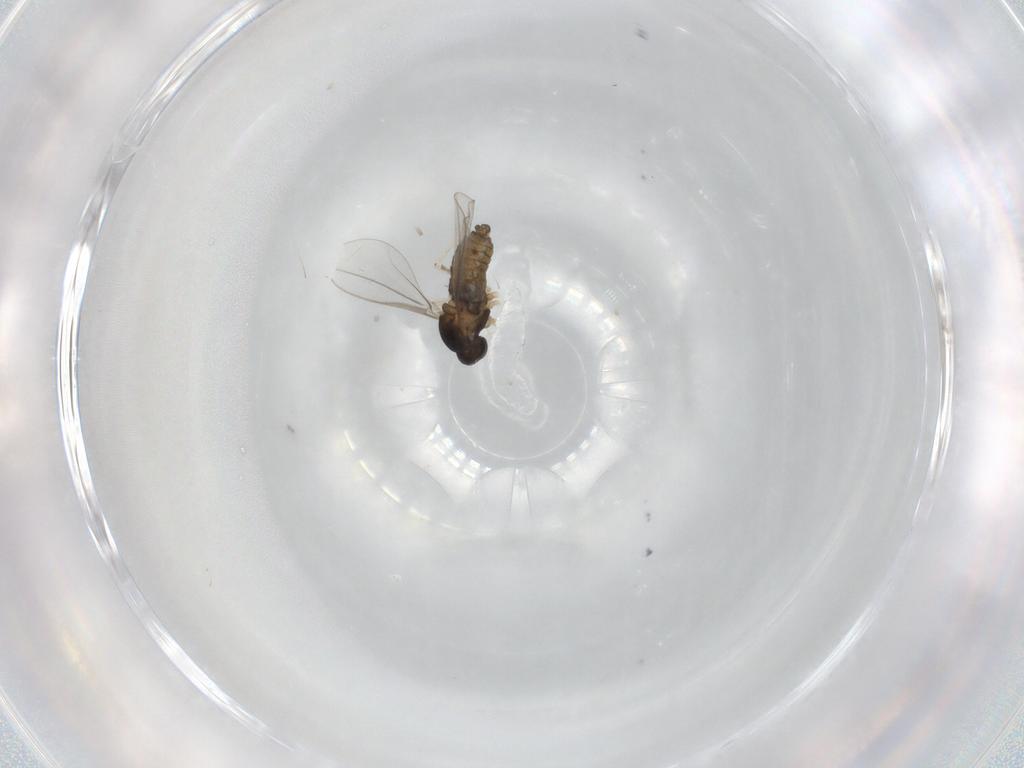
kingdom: Animalia
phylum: Arthropoda
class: Insecta
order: Diptera
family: Cecidomyiidae
